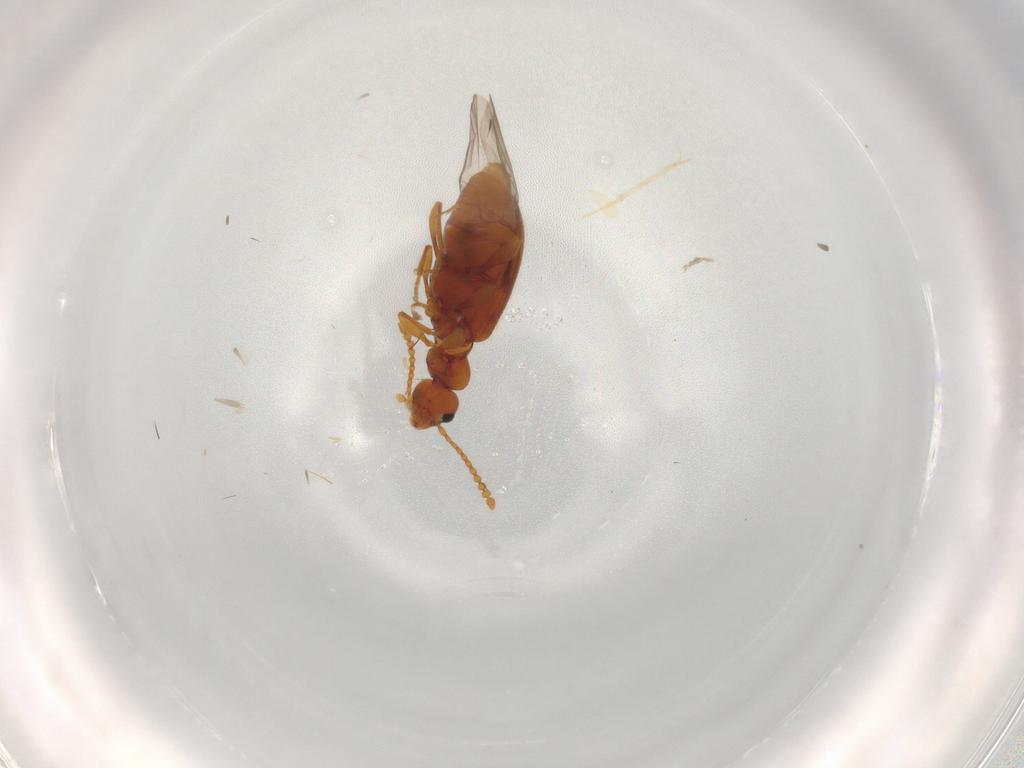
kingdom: Animalia
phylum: Arthropoda
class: Insecta
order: Coleoptera
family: Anthicidae
